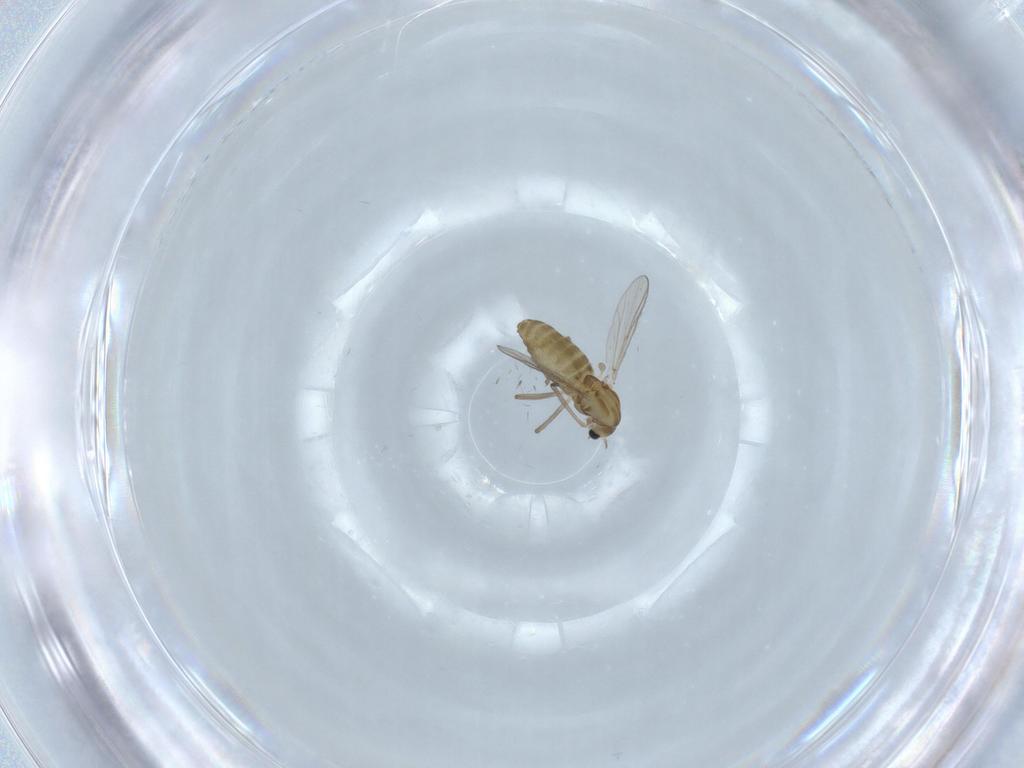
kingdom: Animalia
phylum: Arthropoda
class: Insecta
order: Diptera
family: Chironomidae
